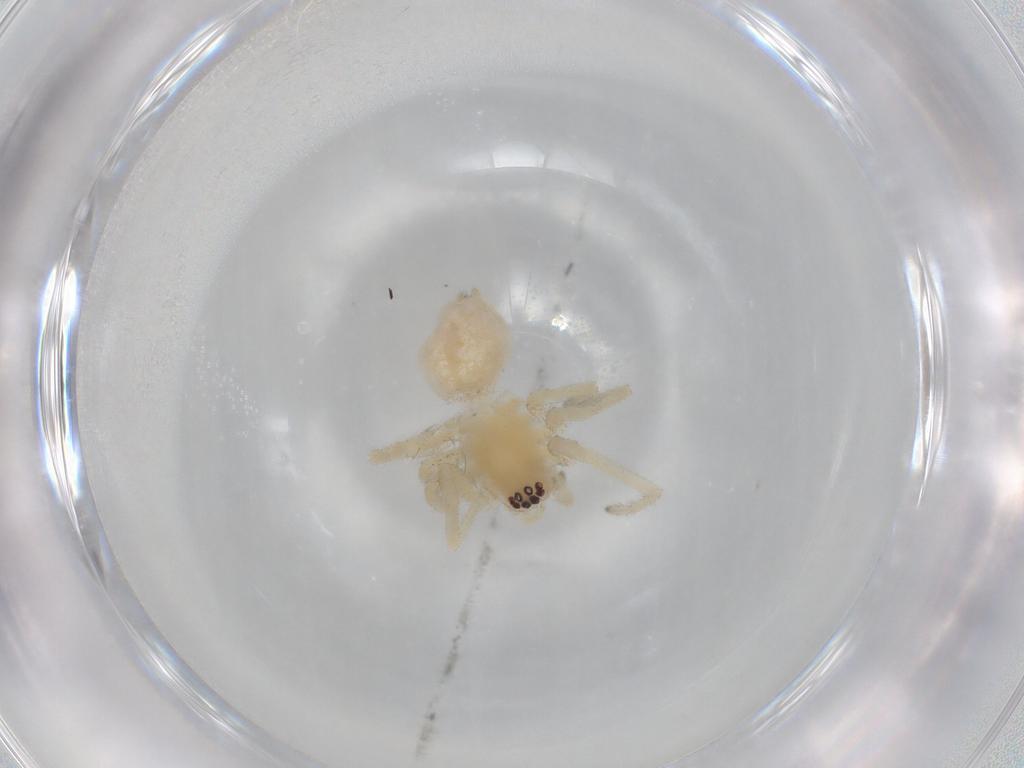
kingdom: Animalia
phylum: Arthropoda
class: Arachnida
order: Araneae
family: Cheiracanthiidae
